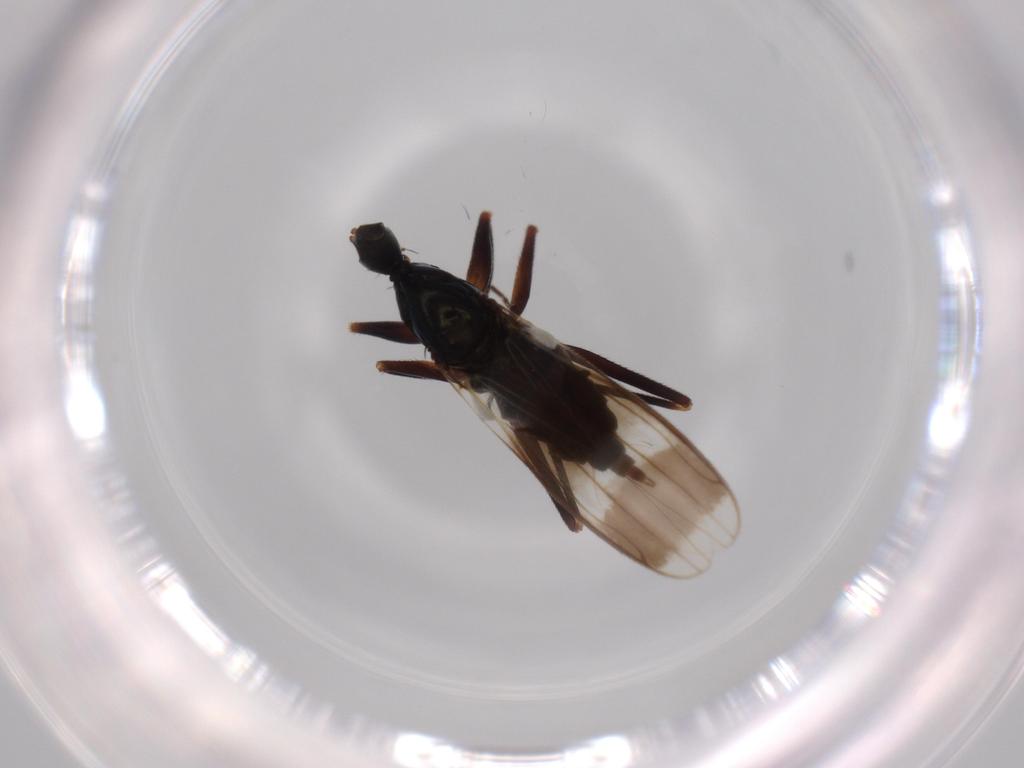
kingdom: Animalia
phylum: Arthropoda
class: Insecta
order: Diptera
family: Hybotidae
